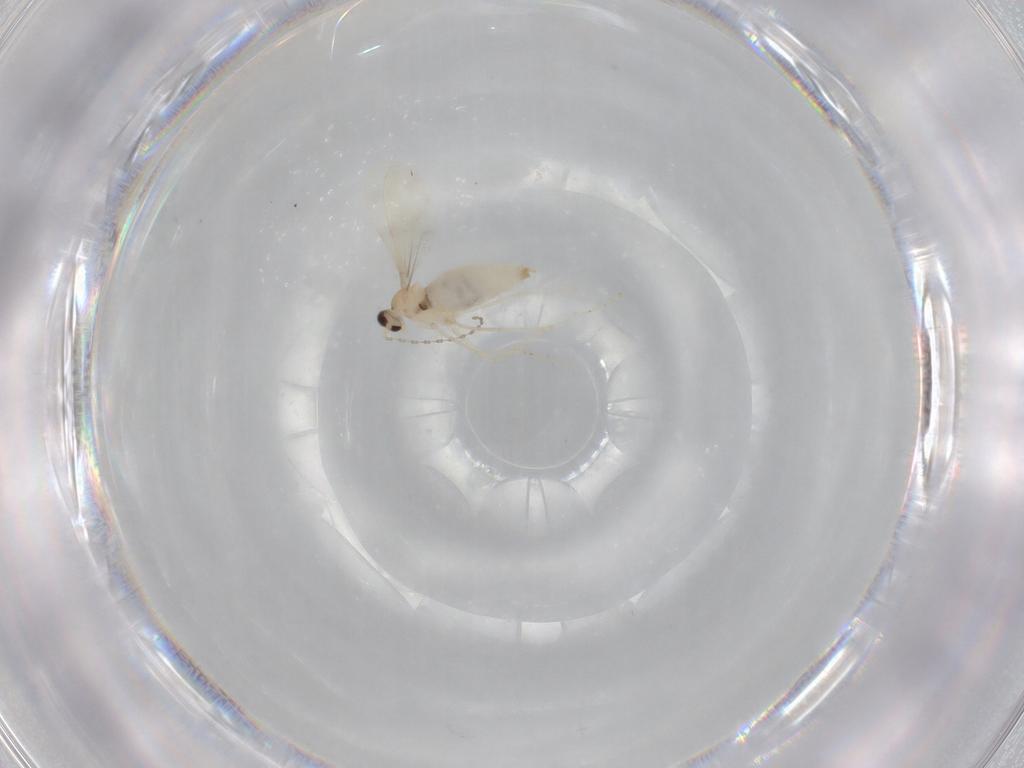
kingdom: Animalia
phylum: Arthropoda
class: Insecta
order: Diptera
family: Cecidomyiidae
